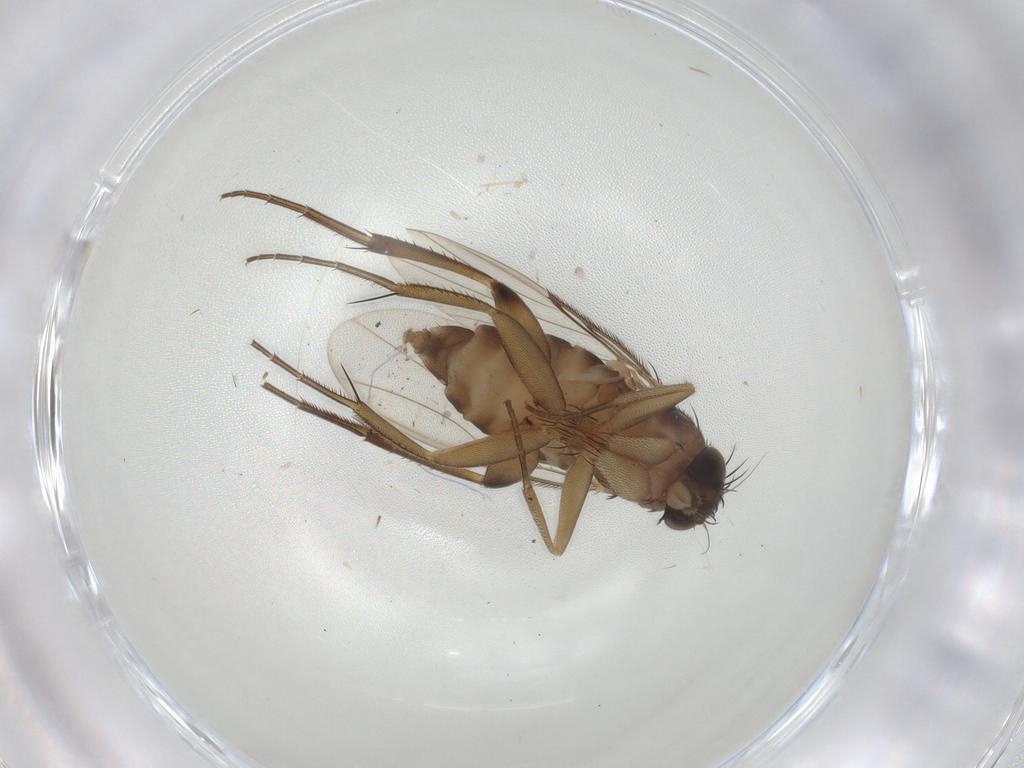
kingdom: Animalia
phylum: Arthropoda
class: Insecta
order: Diptera
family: Phoridae
